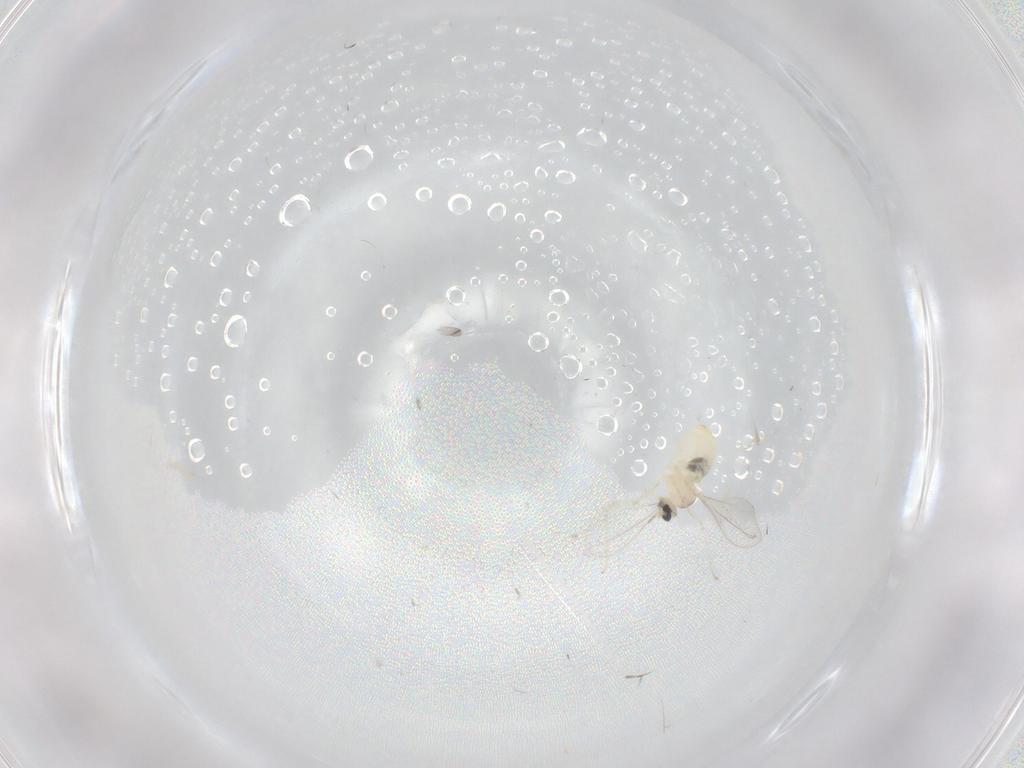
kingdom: Animalia
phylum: Arthropoda
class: Insecta
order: Diptera
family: Cecidomyiidae
